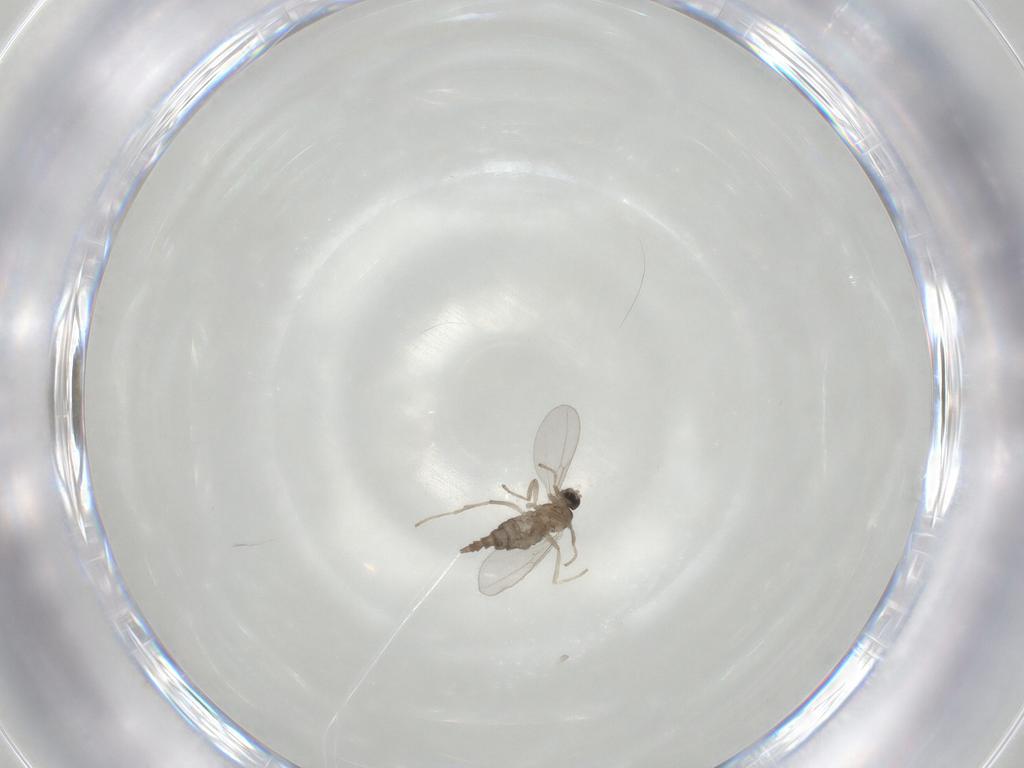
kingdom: Animalia
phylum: Arthropoda
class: Insecta
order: Diptera
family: Cecidomyiidae
